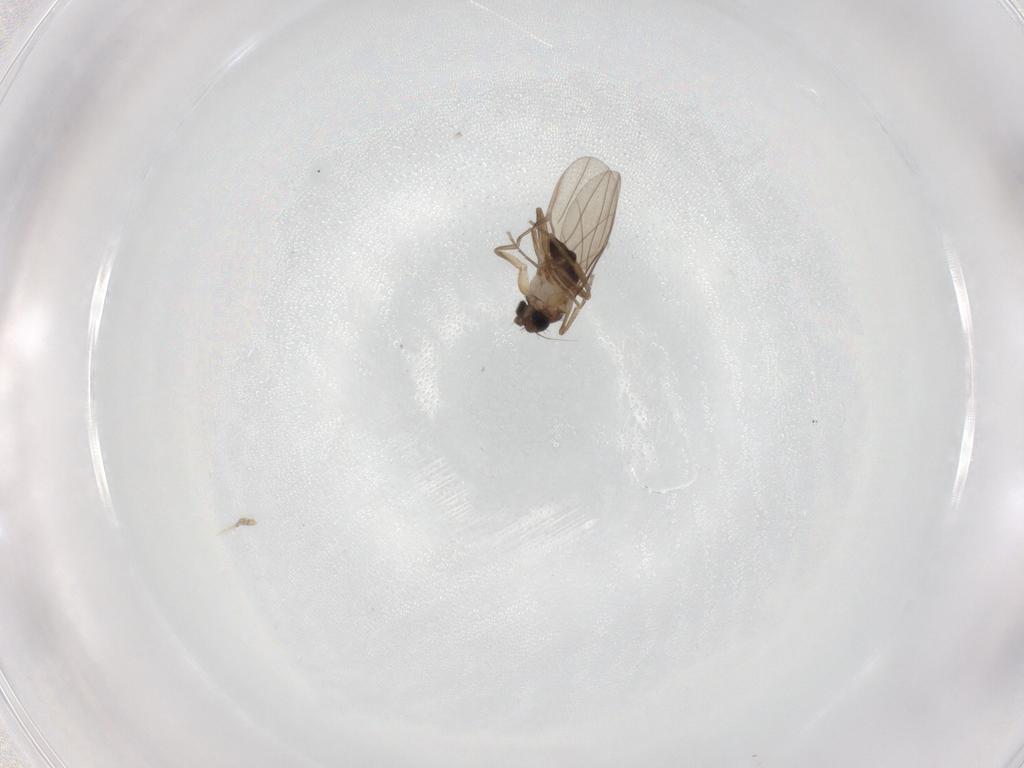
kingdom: Animalia
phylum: Arthropoda
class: Insecta
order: Diptera
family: Phoridae
